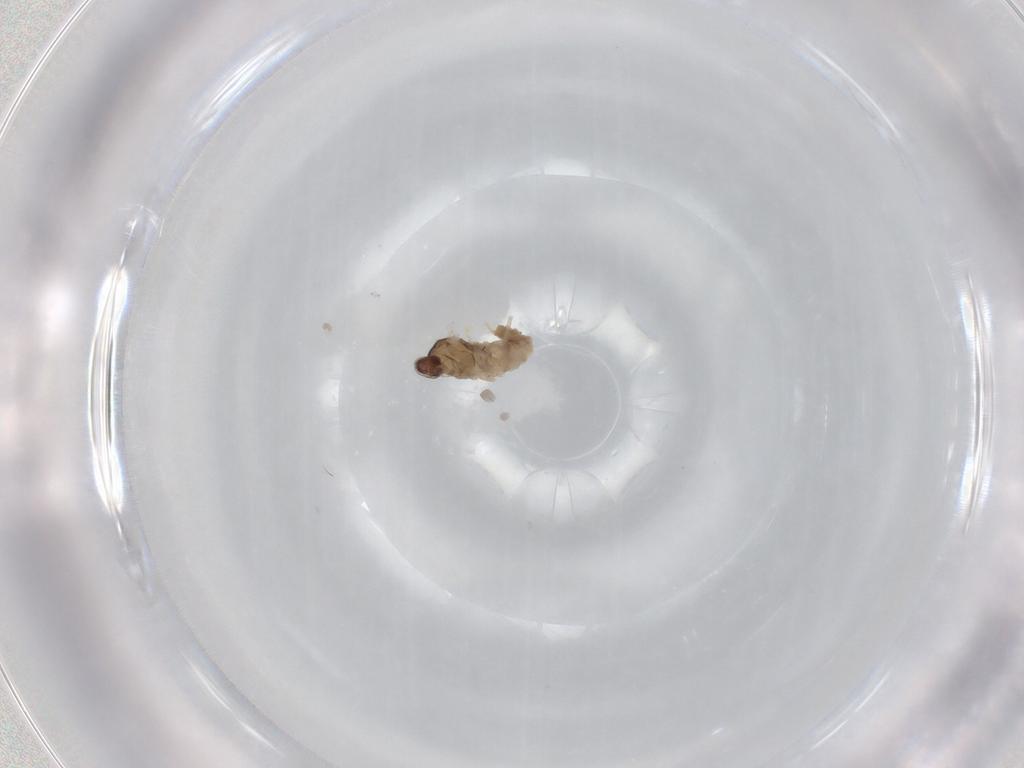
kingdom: Animalia
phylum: Arthropoda
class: Insecta
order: Diptera
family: Cecidomyiidae
